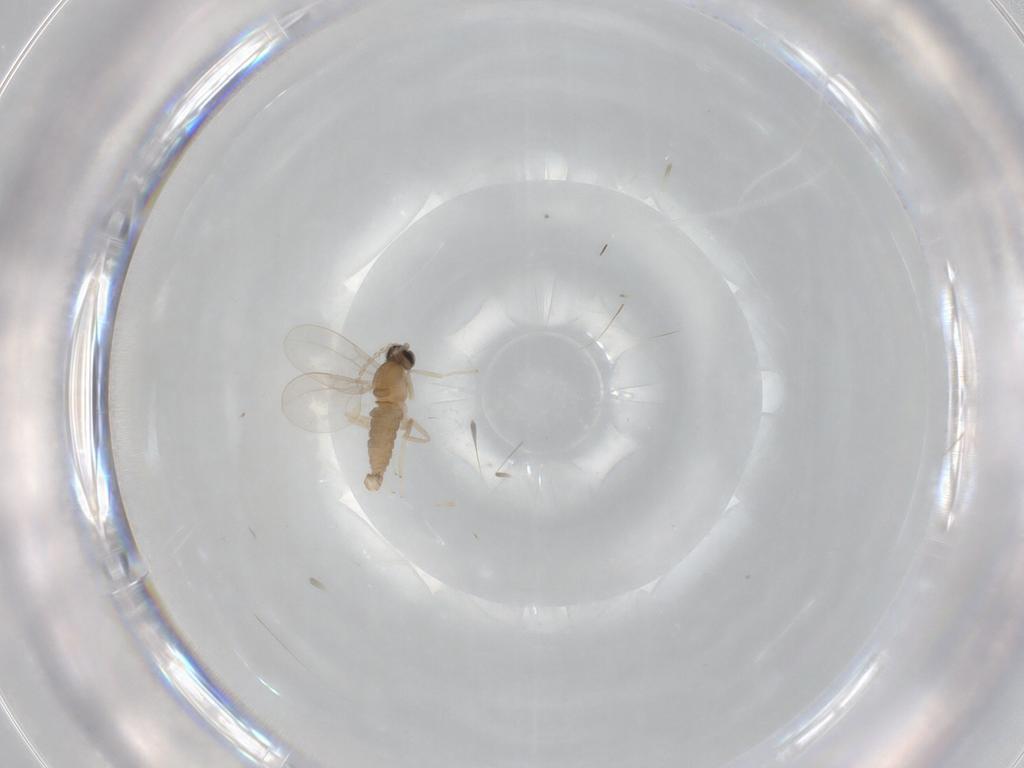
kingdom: Animalia
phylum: Arthropoda
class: Insecta
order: Diptera
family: Cecidomyiidae
